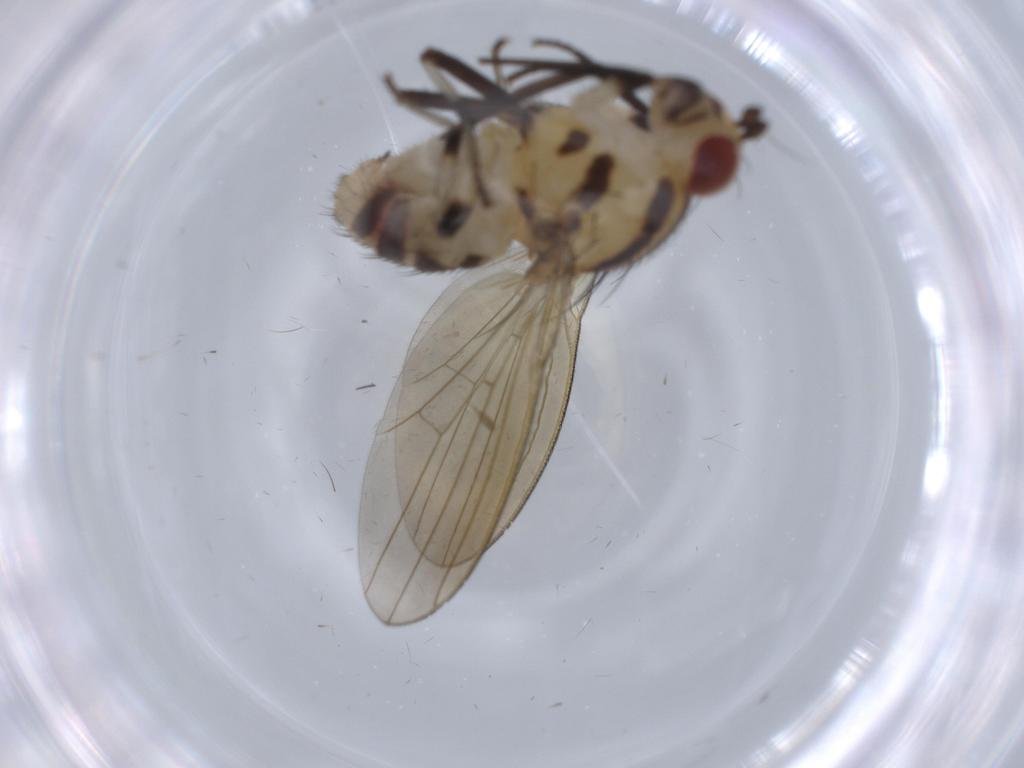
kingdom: Animalia
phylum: Arthropoda
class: Insecta
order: Diptera
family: Lauxaniidae
